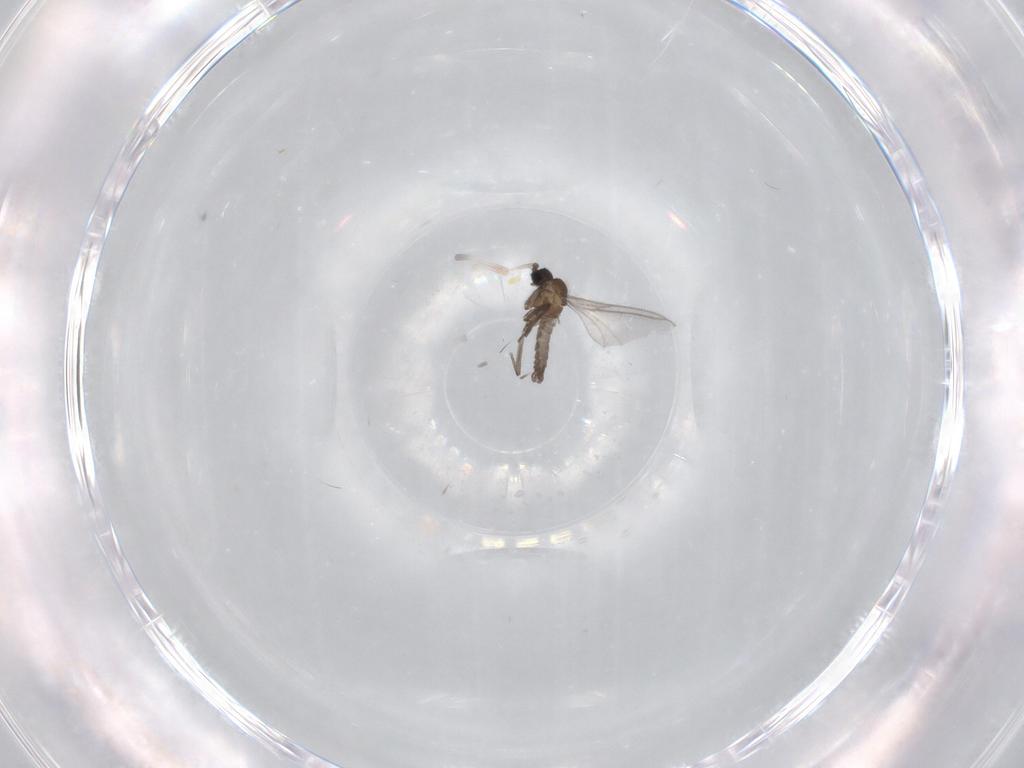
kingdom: Animalia
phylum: Arthropoda
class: Insecta
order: Diptera
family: Sciaridae
